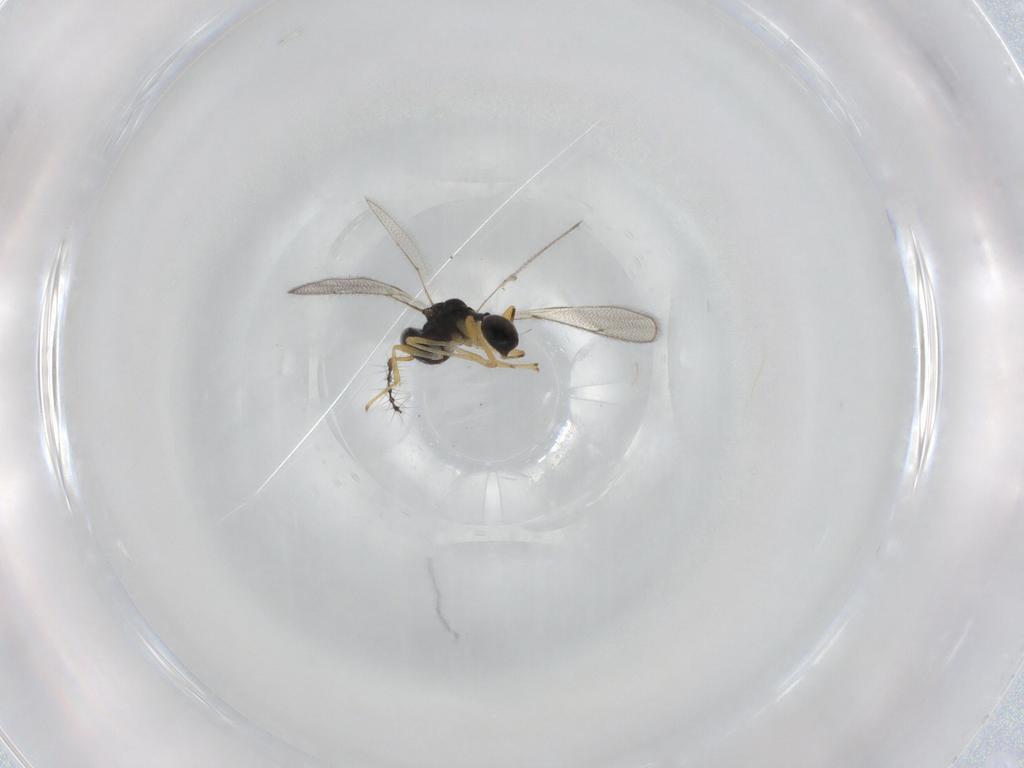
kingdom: Animalia
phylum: Arthropoda
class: Insecta
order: Hymenoptera
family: Diparidae
